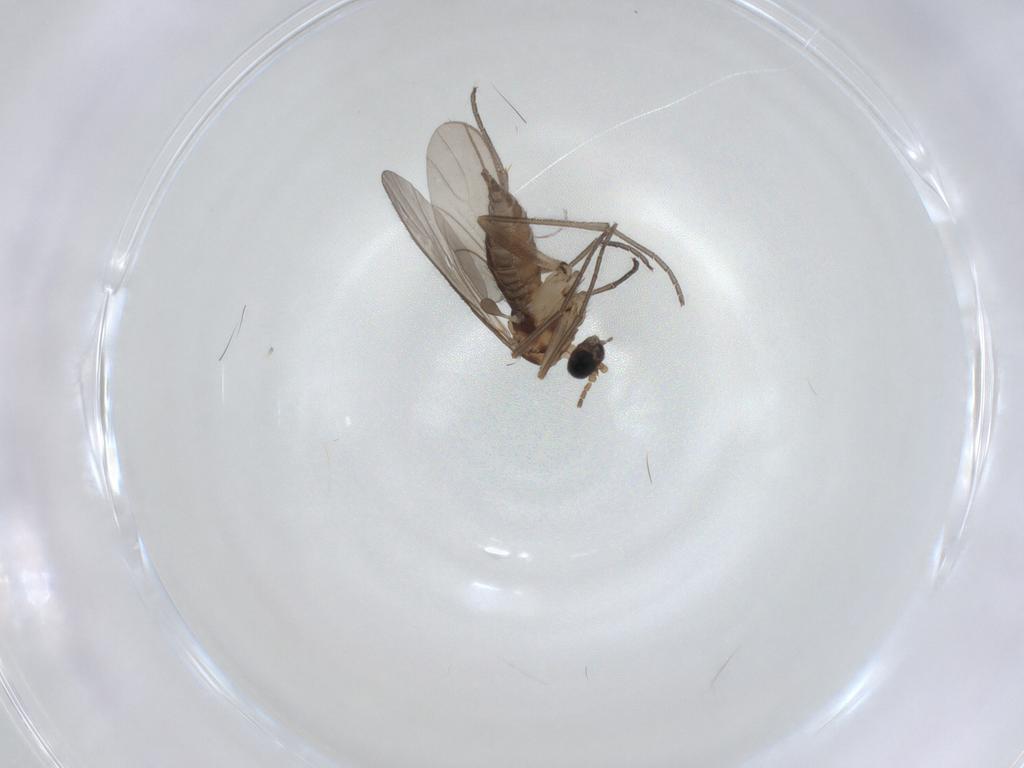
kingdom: Animalia
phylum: Arthropoda
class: Insecta
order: Diptera
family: Sciaridae
